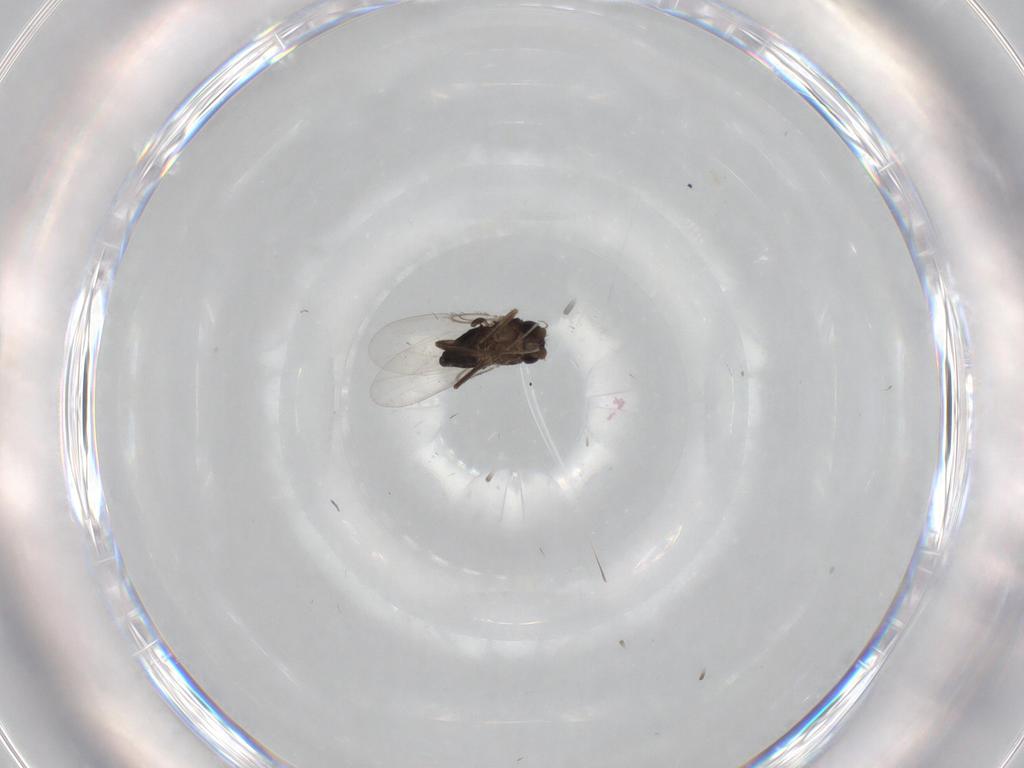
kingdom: Animalia
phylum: Arthropoda
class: Insecta
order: Diptera
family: Phoridae
